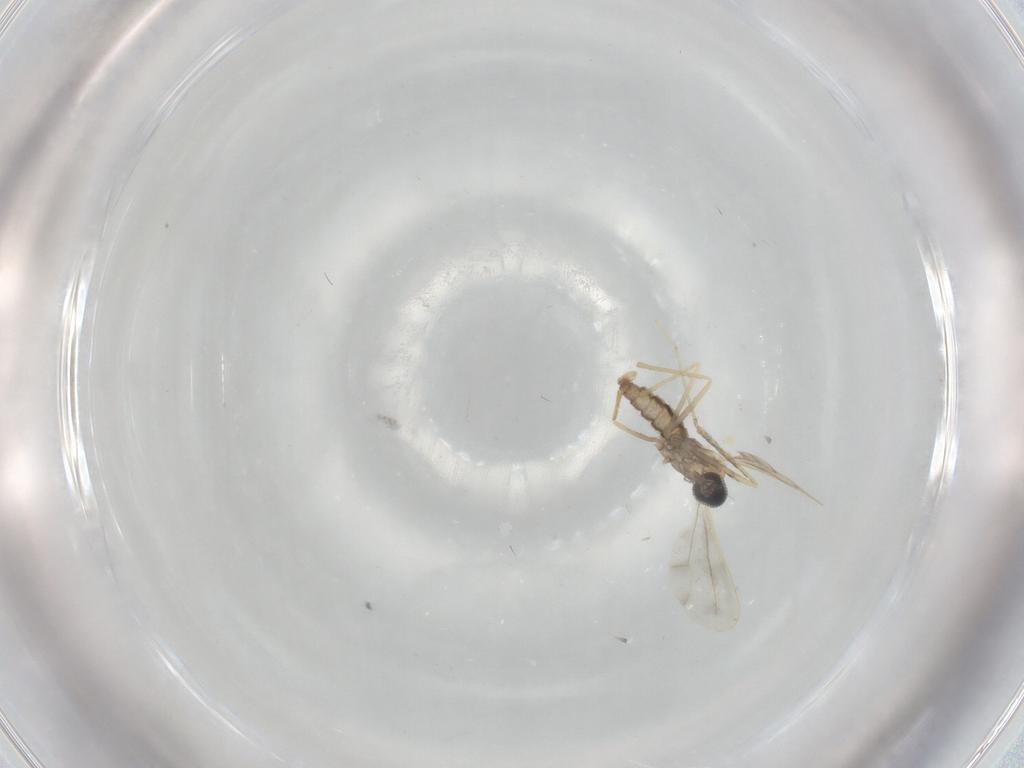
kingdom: Animalia
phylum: Arthropoda
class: Insecta
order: Diptera
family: Cecidomyiidae
